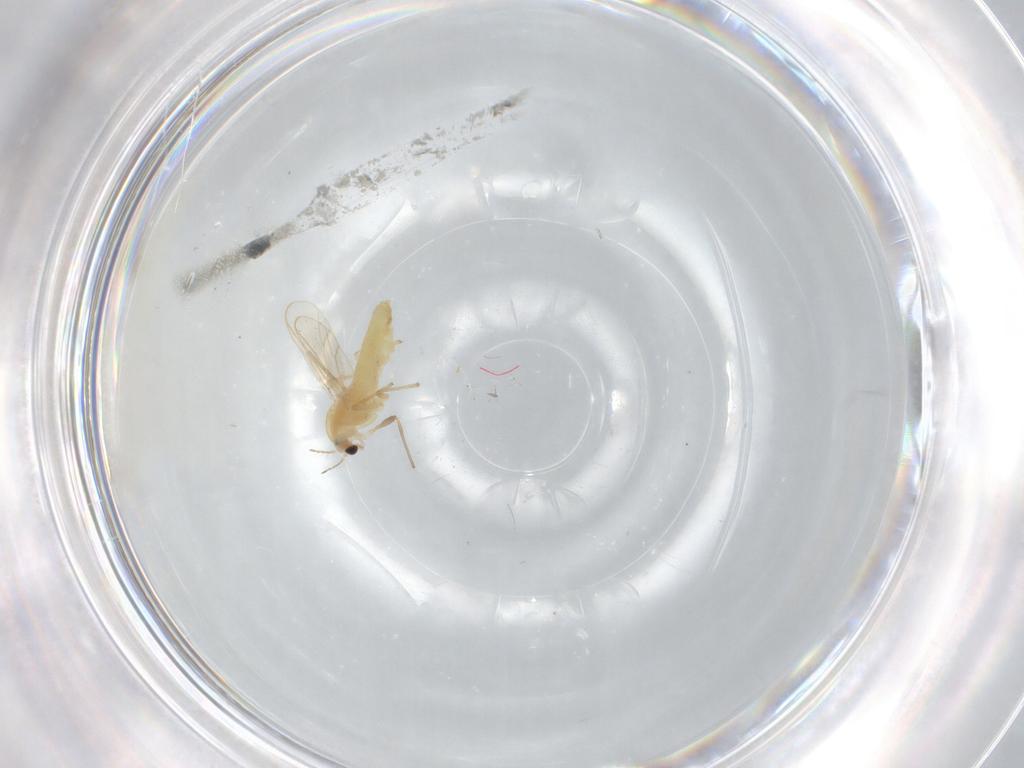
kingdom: Animalia
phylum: Arthropoda
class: Insecta
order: Diptera
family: Chironomidae
